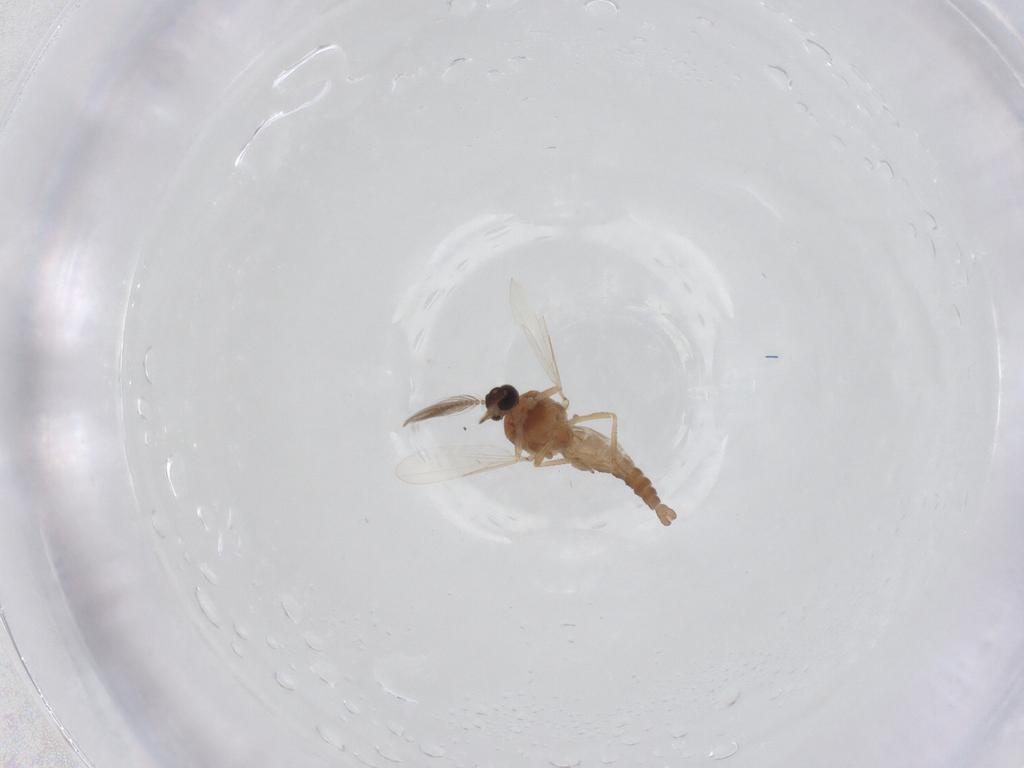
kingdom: Animalia
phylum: Arthropoda
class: Insecta
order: Diptera
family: Ceratopogonidae
